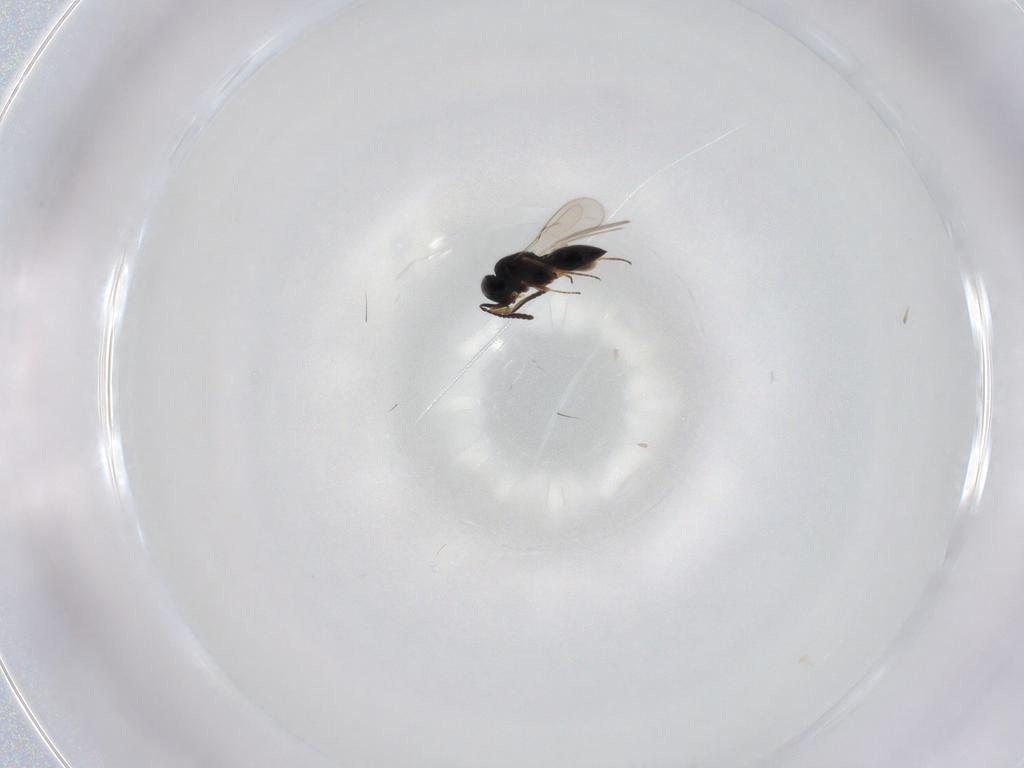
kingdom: Animalia
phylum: Arthropoda
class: Insecta
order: Hymenoptera
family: Scelionidae
